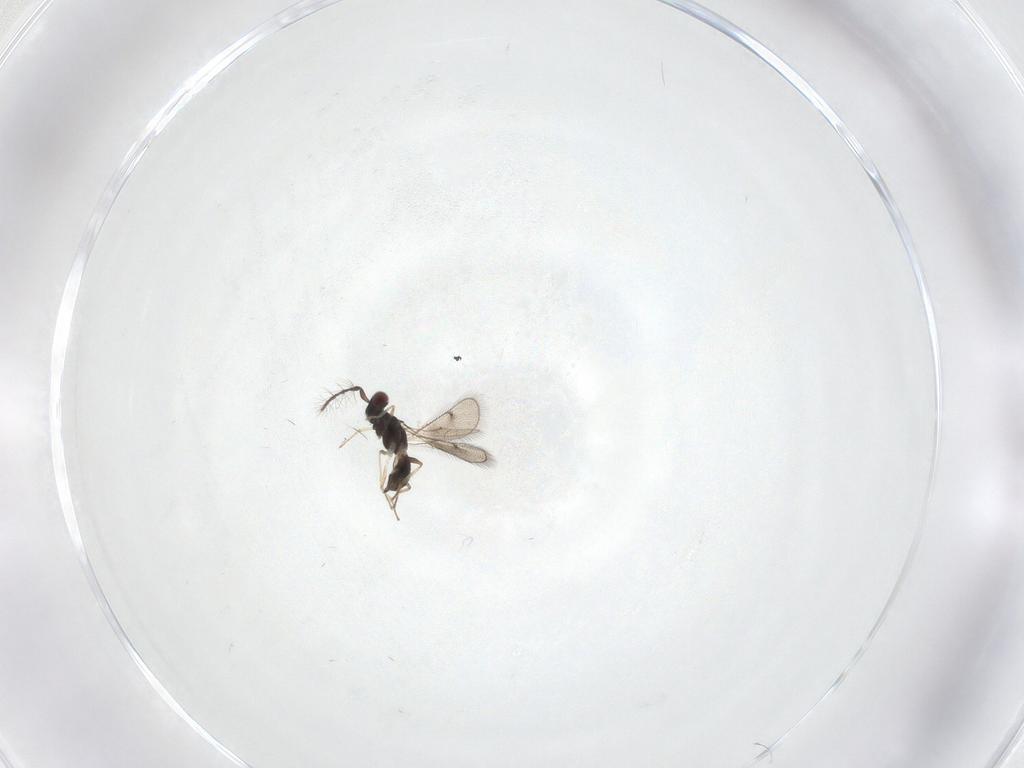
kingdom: Animalia
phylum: Arthropoda
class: Insecta
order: Hymenoptera
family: Eulophidae
